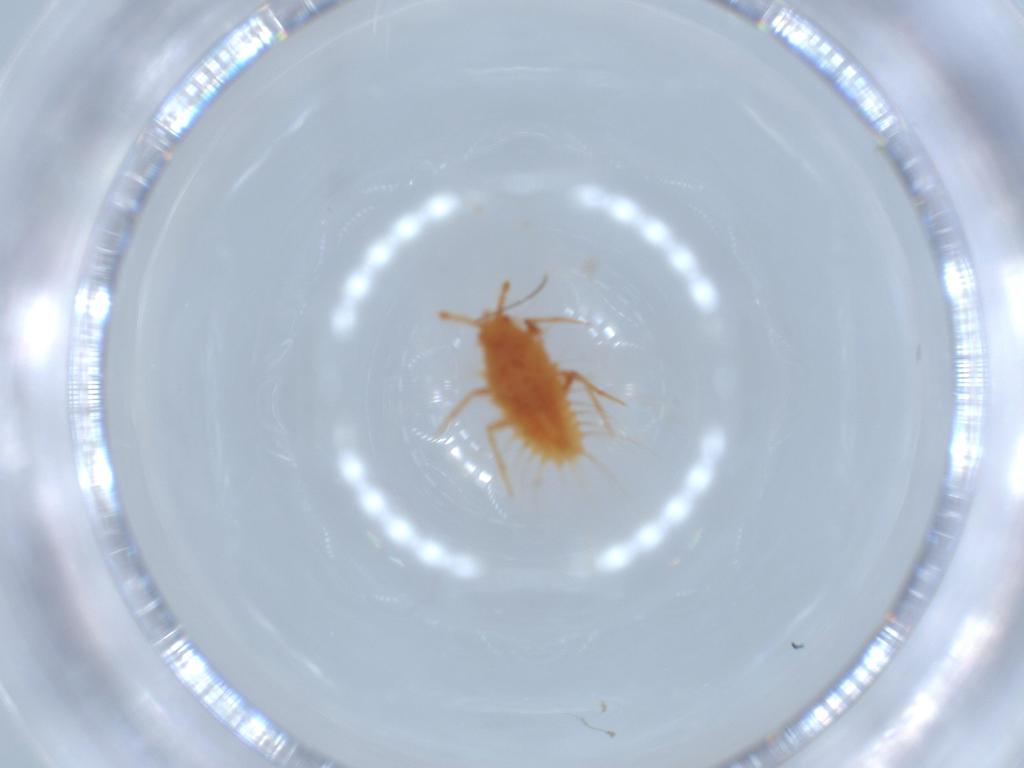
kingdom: Animalia
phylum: Arthropoda
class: Insecta
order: Hemiptera
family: Monophlebidae
